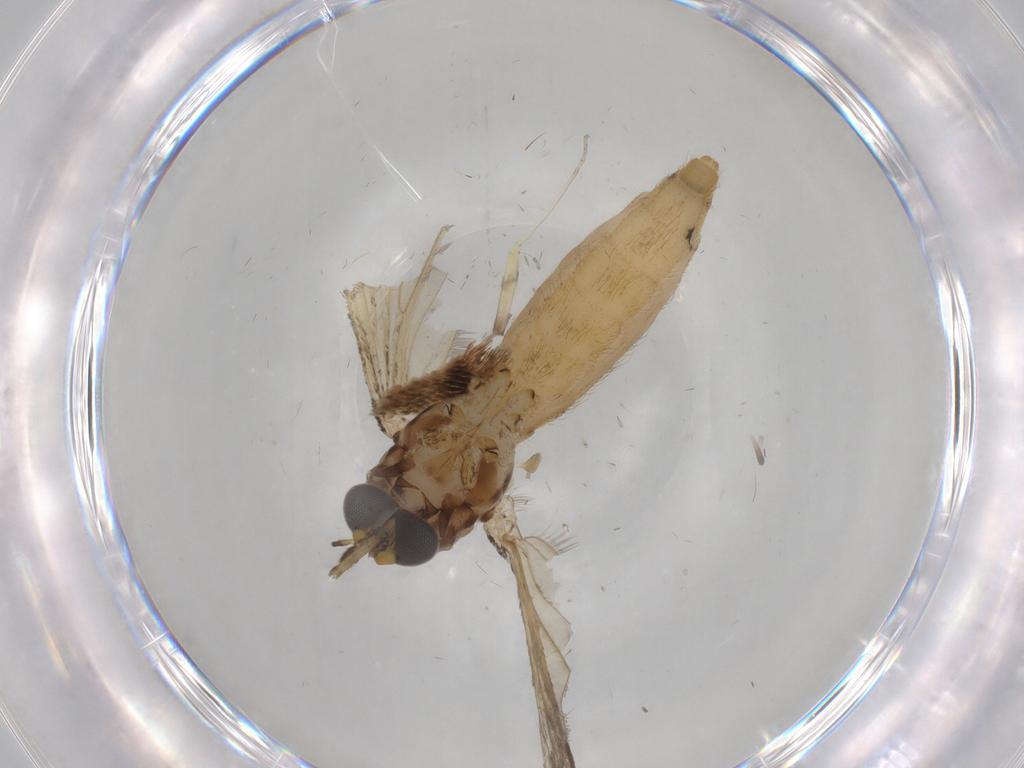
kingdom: Animalia
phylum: Arthropoda
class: Insecta
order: Diptera
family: Culicidae
